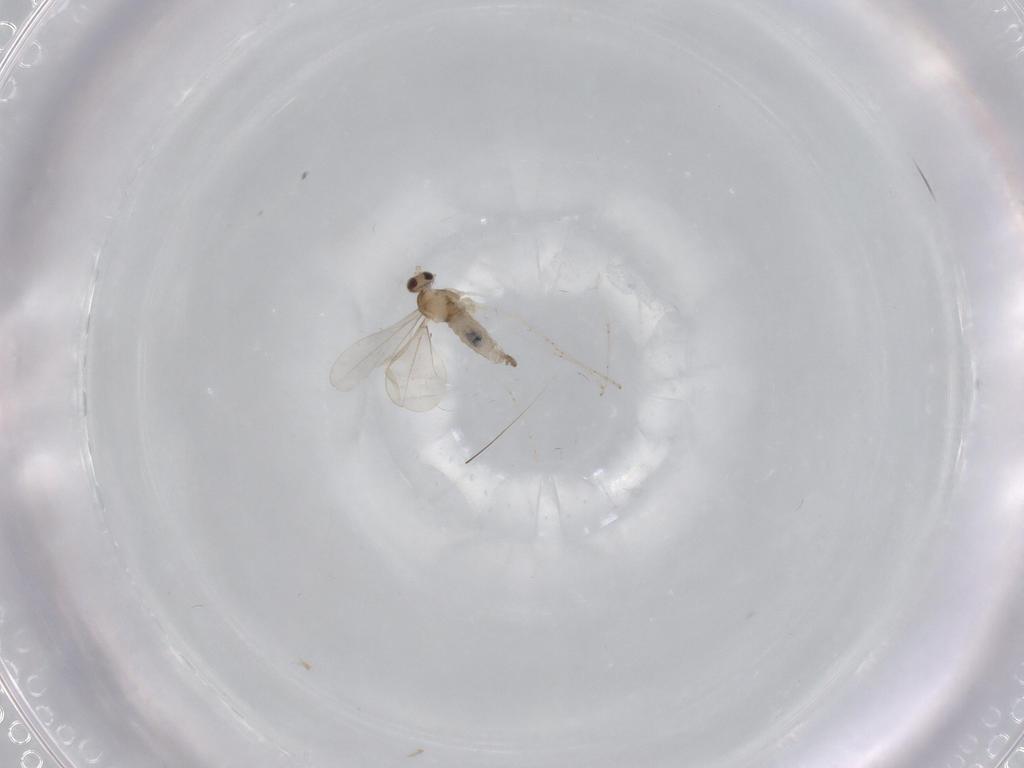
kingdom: Animalia
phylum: Arthropoda
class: Insecta
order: Diptera
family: Cecidomyiidae
